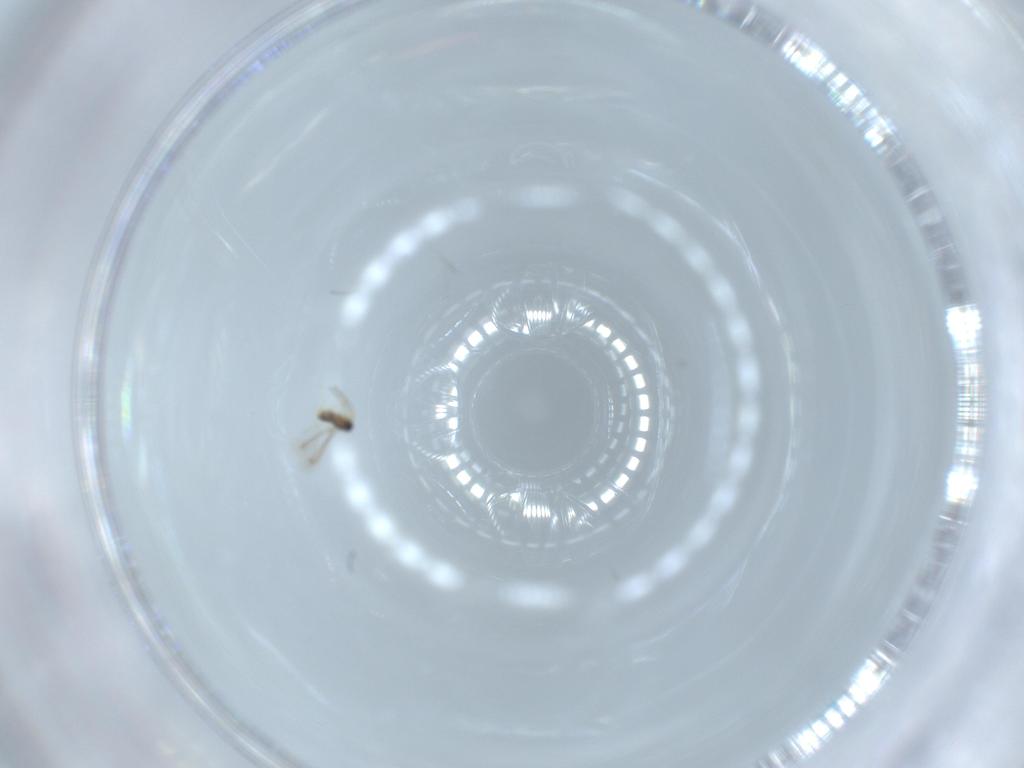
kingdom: Animalia
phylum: Arthropoda
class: Insecta
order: Hymenoptera
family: Mymaridae
